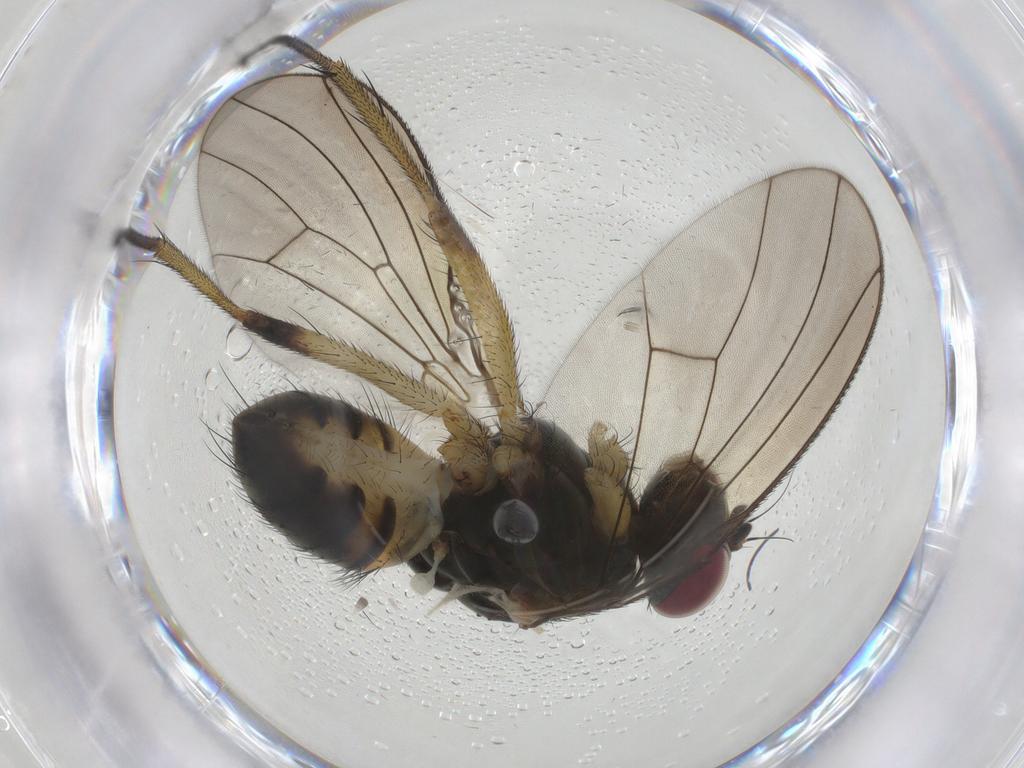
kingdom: Animalia
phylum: Arthropoda
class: Insecta
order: Diptera
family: Muscidae
